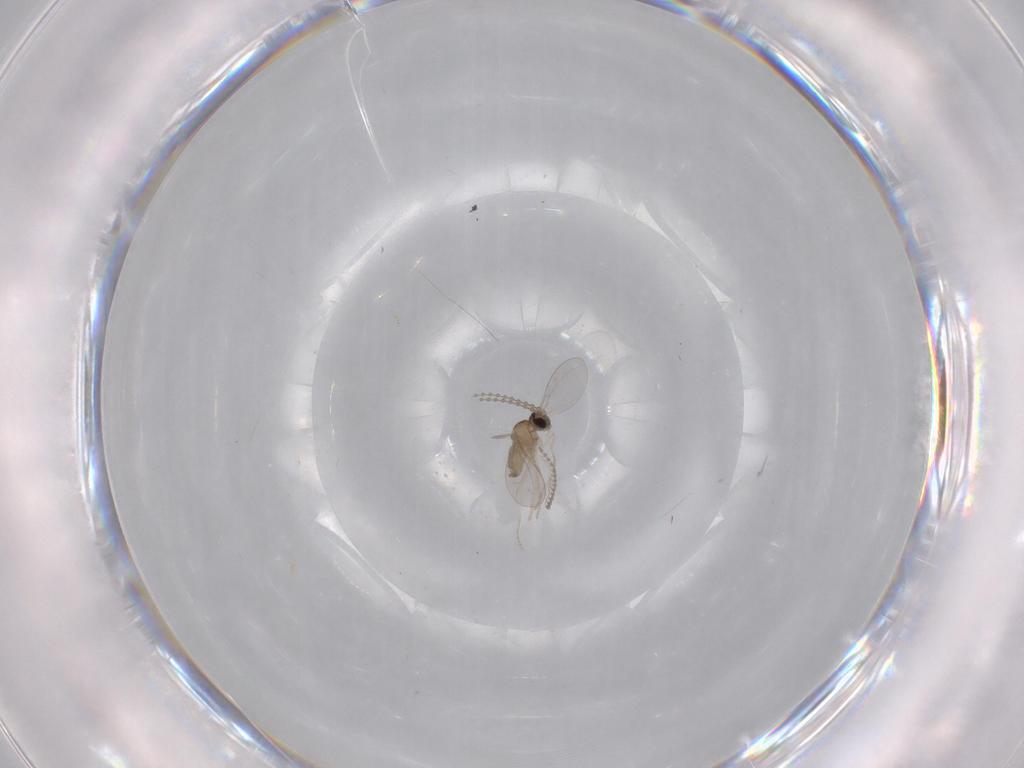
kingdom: Animalia
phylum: Arthropoda
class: Insecta
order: Diptera
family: Cecidomyiidae
